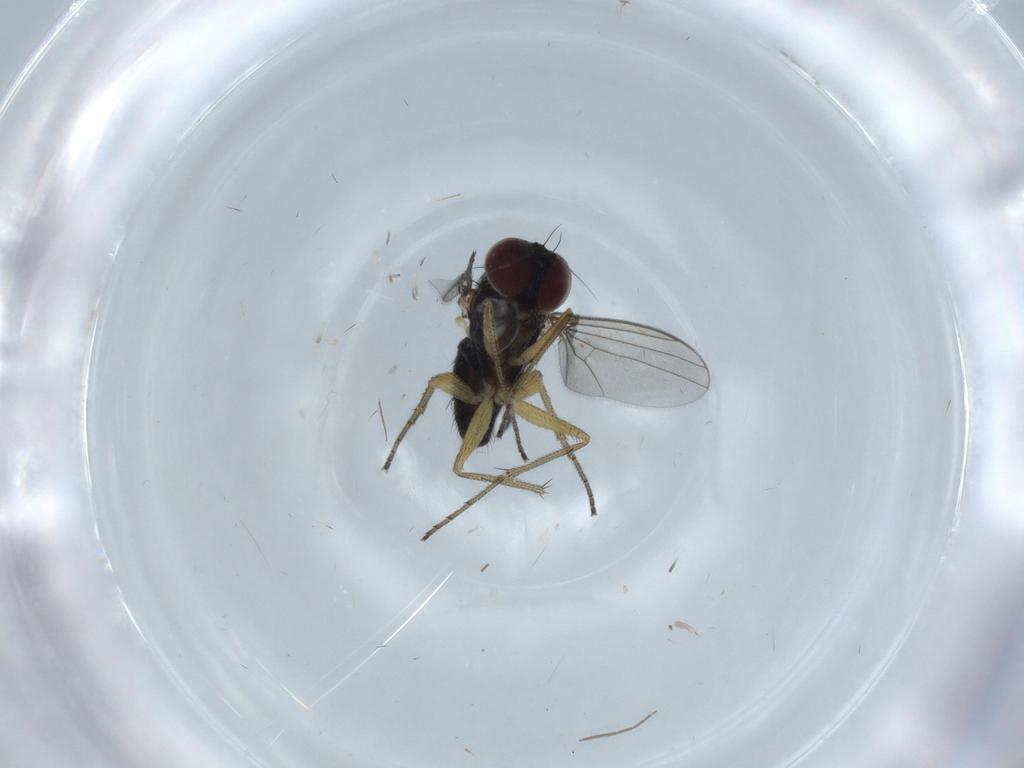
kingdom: Animalia
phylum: Arthropoda
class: Insecta
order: Diptera
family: Dolichopodidae
